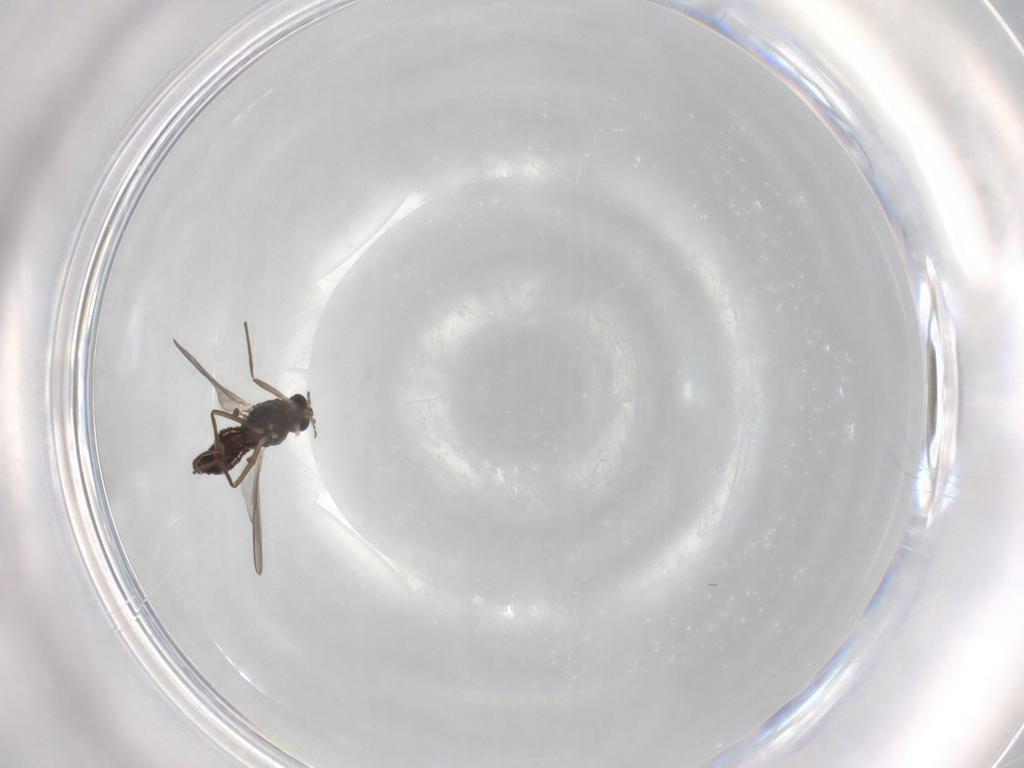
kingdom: Animalia
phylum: Arthropoda
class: Insecta
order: Diptera
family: Chironomidae
